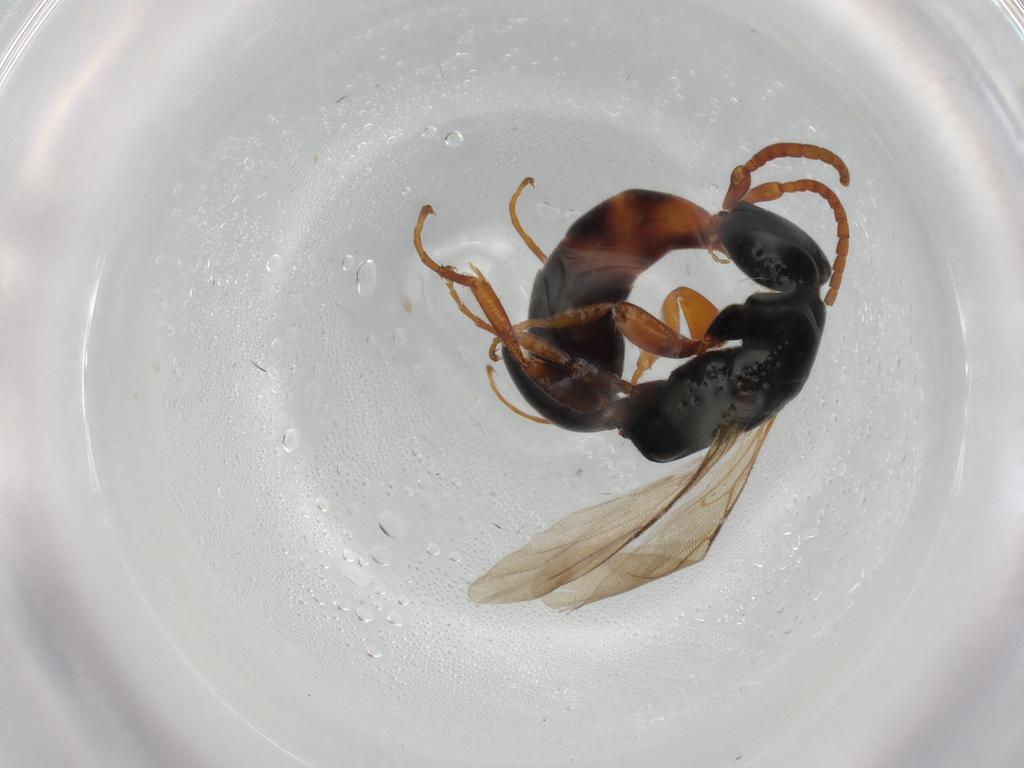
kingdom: Animalia
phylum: Arthropoda
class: Insecta
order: Hymenoptera
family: Bethylidae
